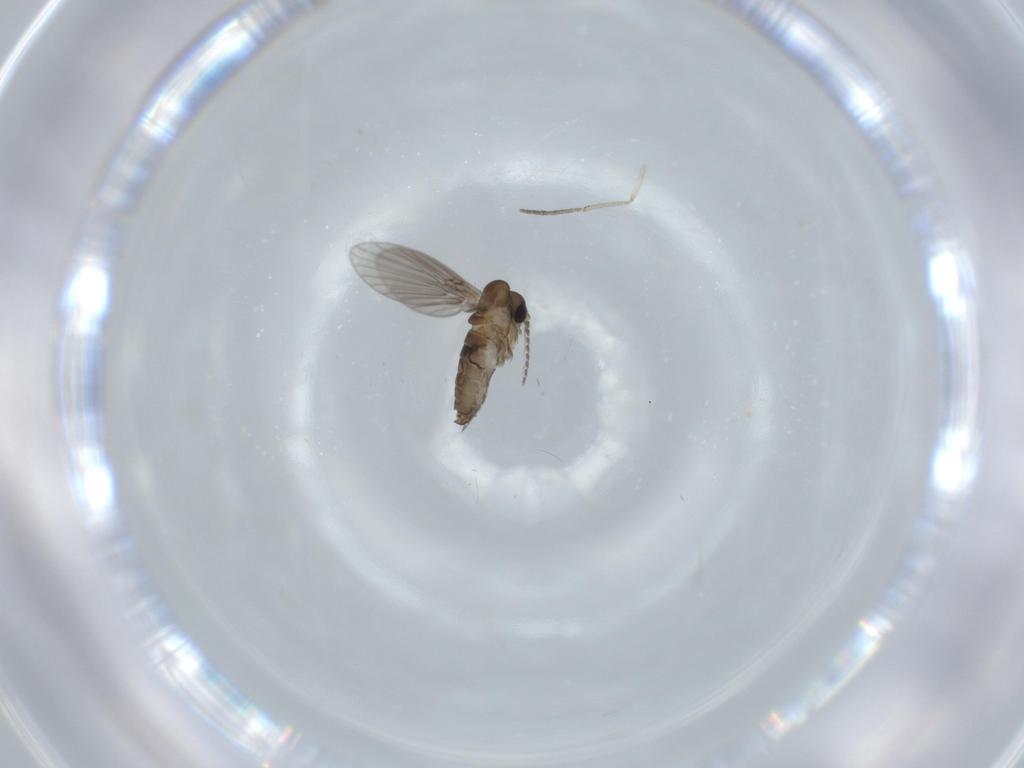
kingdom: Animalia
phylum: Arthropoda
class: Insecta
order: Diptera
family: Psychodidae
